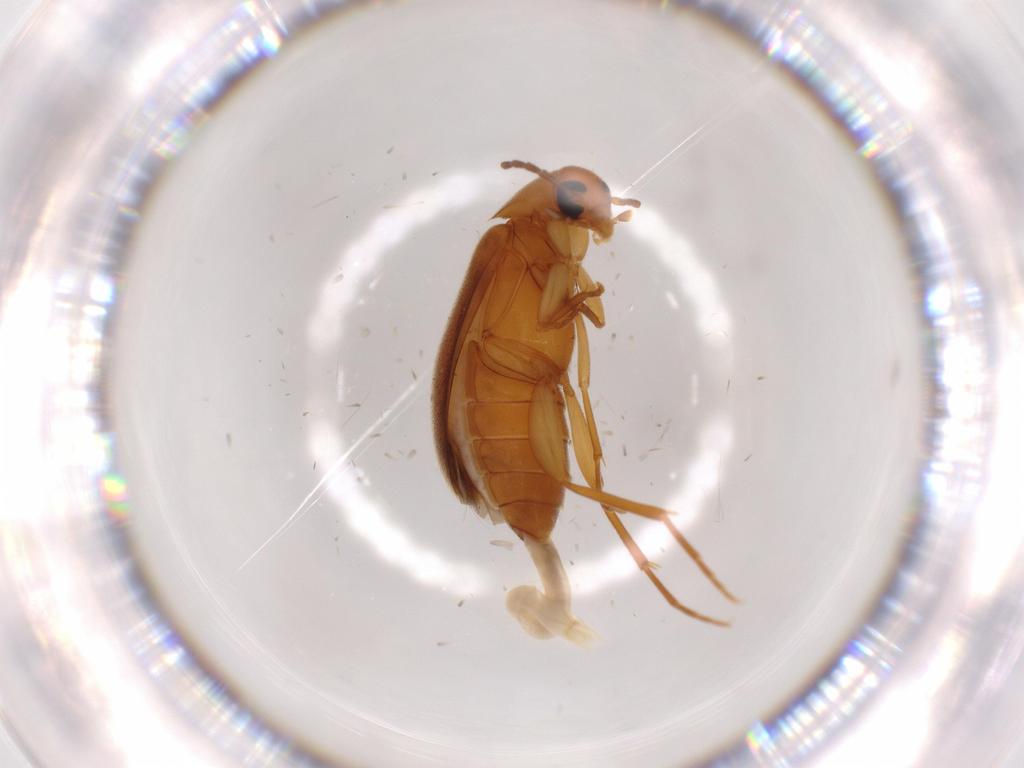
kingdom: Animalia
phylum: Arthropoda
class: Insecta
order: Coleoptera
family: Scraptiidae
